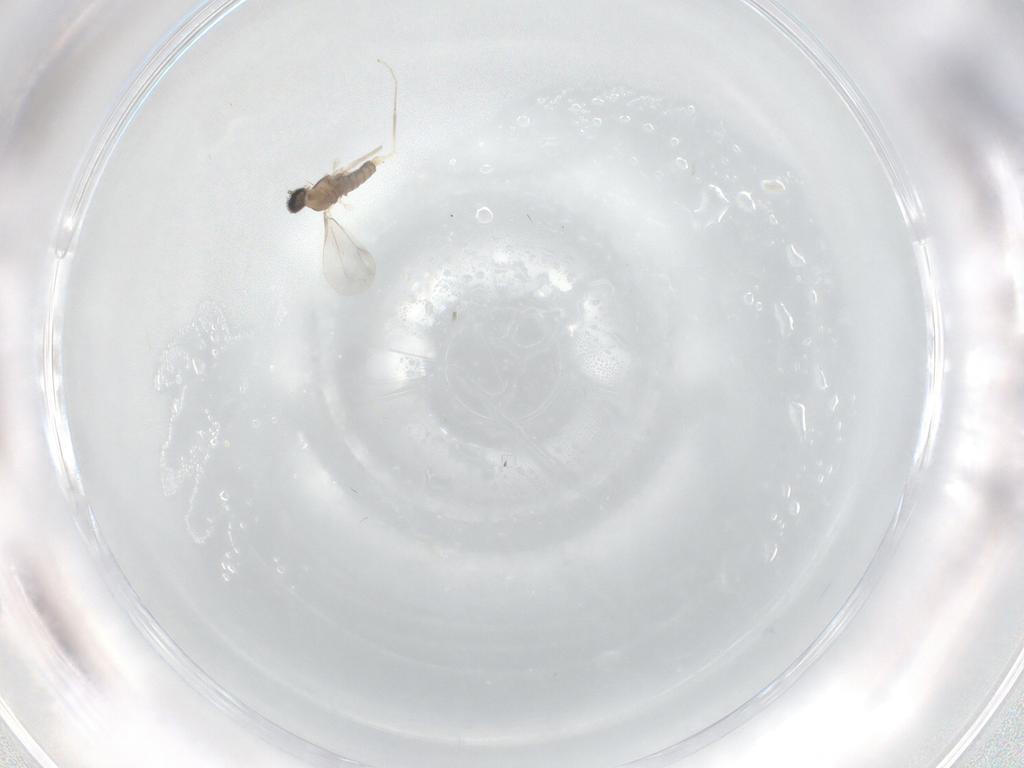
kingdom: Animalia
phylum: Arthropoda
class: Insecta
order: Diptera
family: Cecidomyiidae
